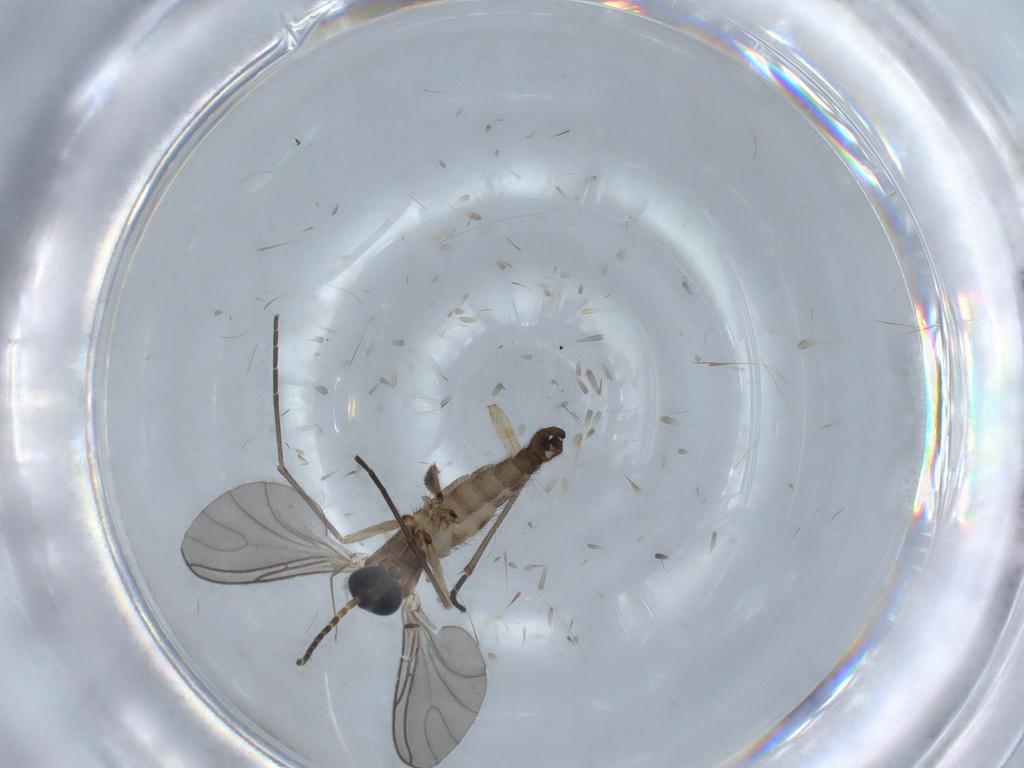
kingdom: Animalia
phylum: Arthropoda
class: Insecta
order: Diptera
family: Sciaridae
